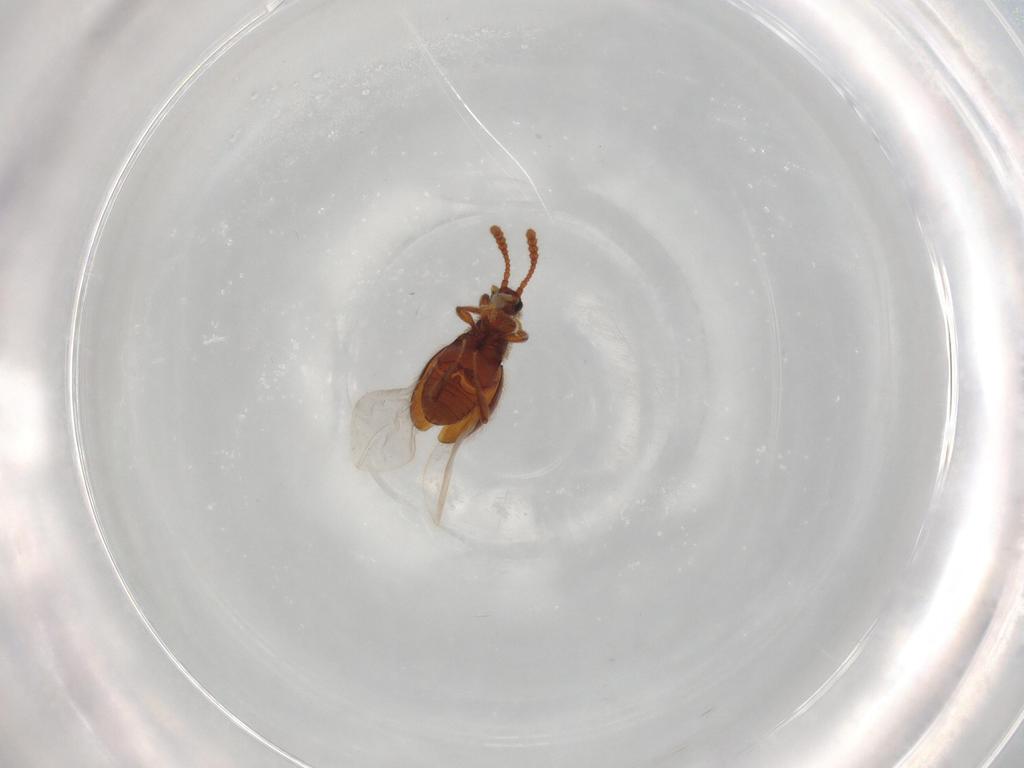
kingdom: Animalia
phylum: Arthropoda
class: Insecta
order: Coleoptera
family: Staphylinidae
